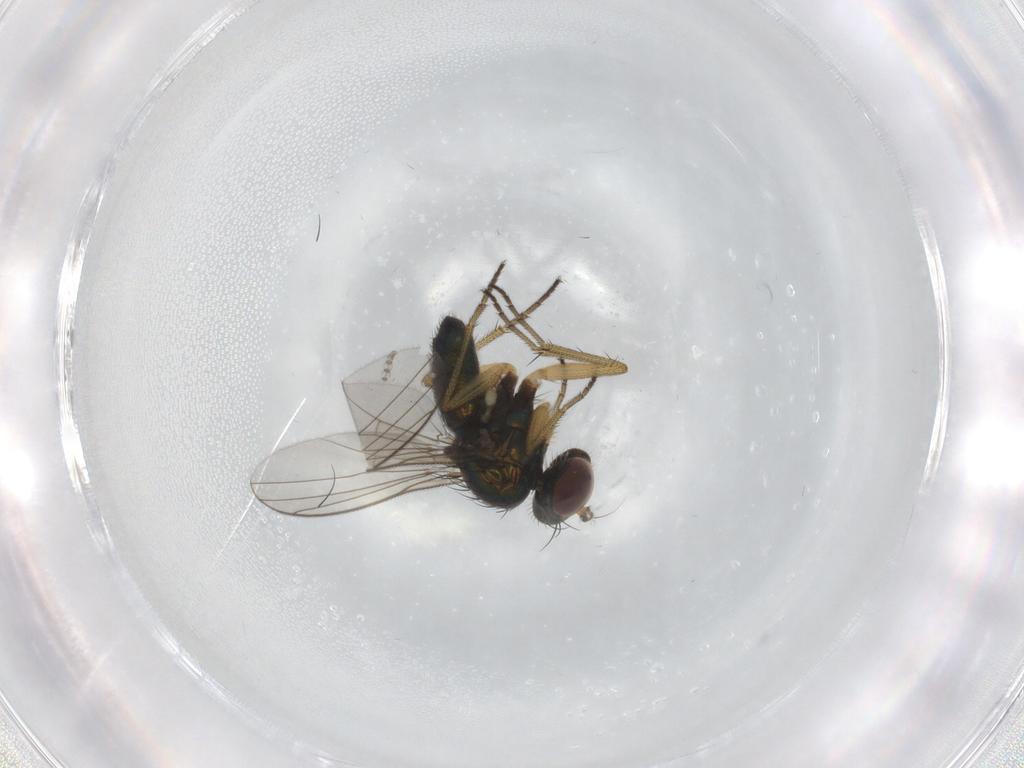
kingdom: Animalia
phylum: Arthropoda
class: Insecta
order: Diptera
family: Dolichopodidae
